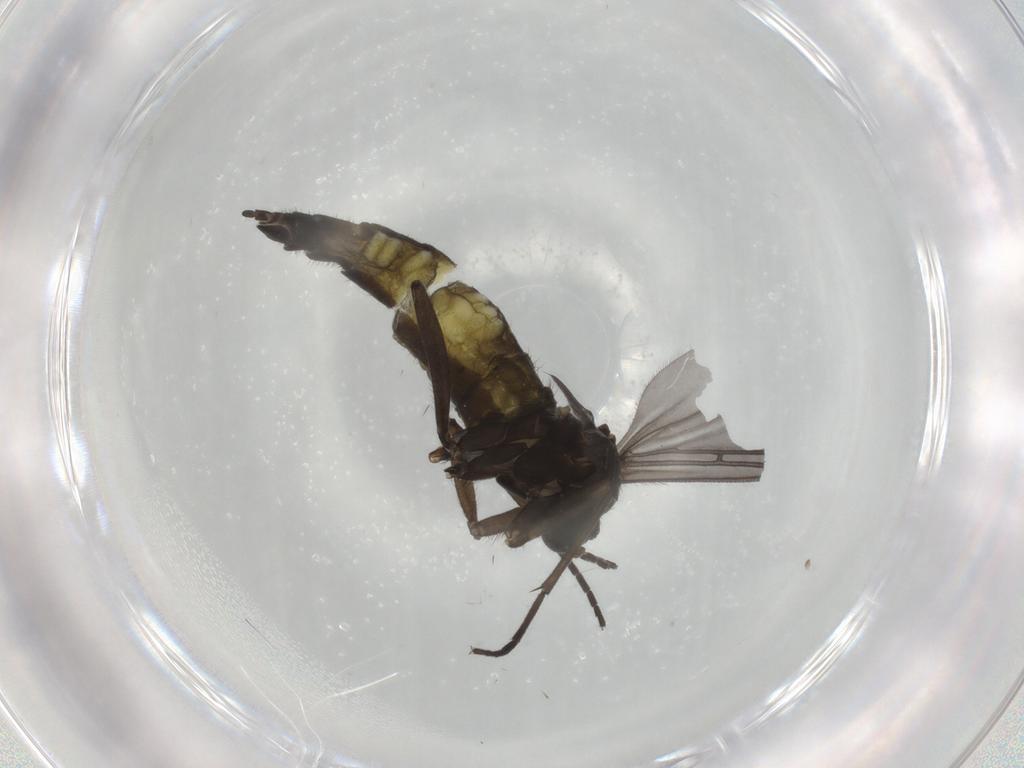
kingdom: Animalia
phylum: Arthropoda
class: Insecta
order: Diptera
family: Sciaridae
